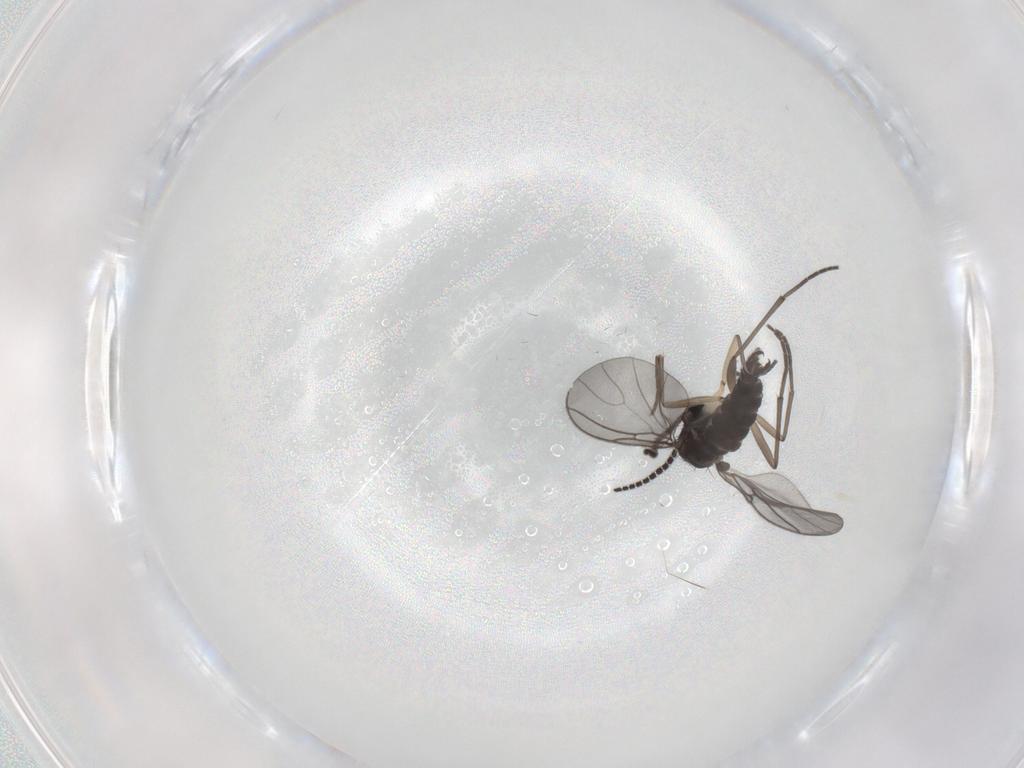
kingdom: Animalia
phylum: Arthropoda
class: Insecta
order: Diptera
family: Sciaridae
